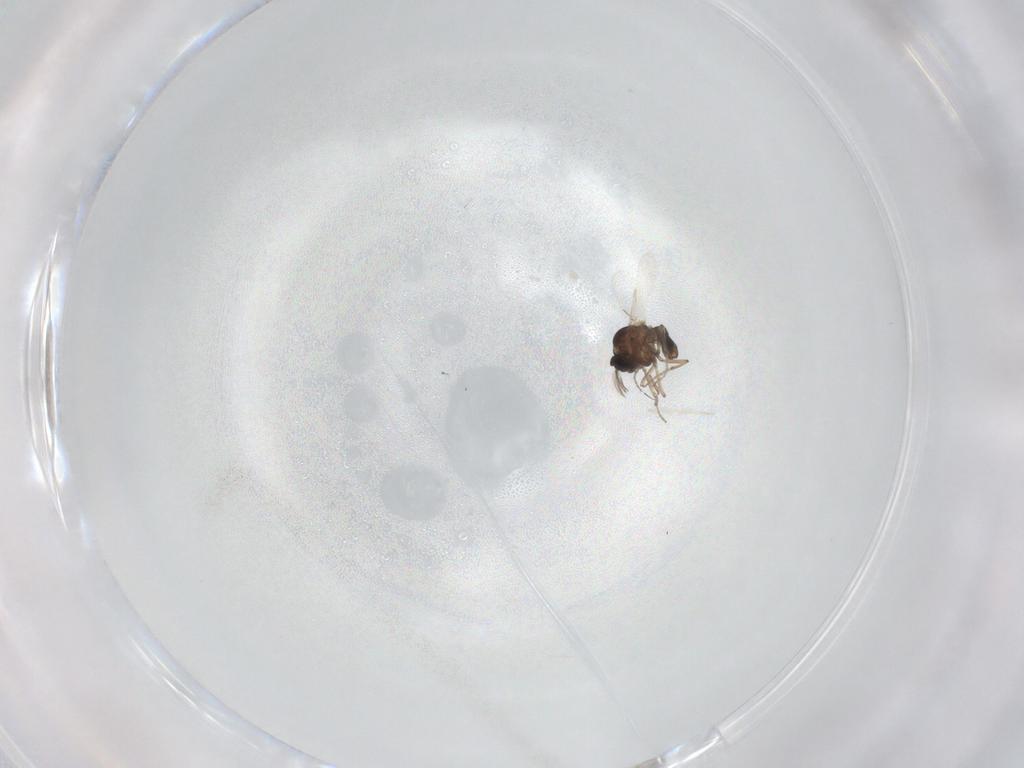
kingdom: Animalia
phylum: Arthropoda
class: Insecta
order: Diptera
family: Ceratopogonidae
